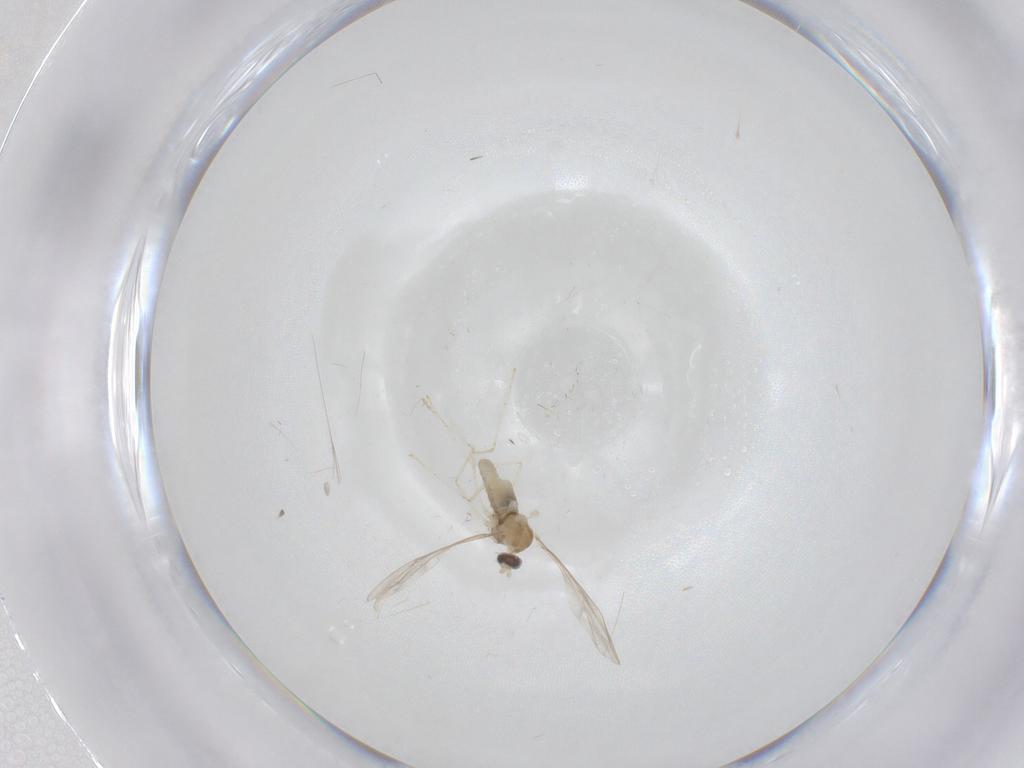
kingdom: Animalia
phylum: Arthropoda
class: Insecta
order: Diptera
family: Cecidomyiidae
